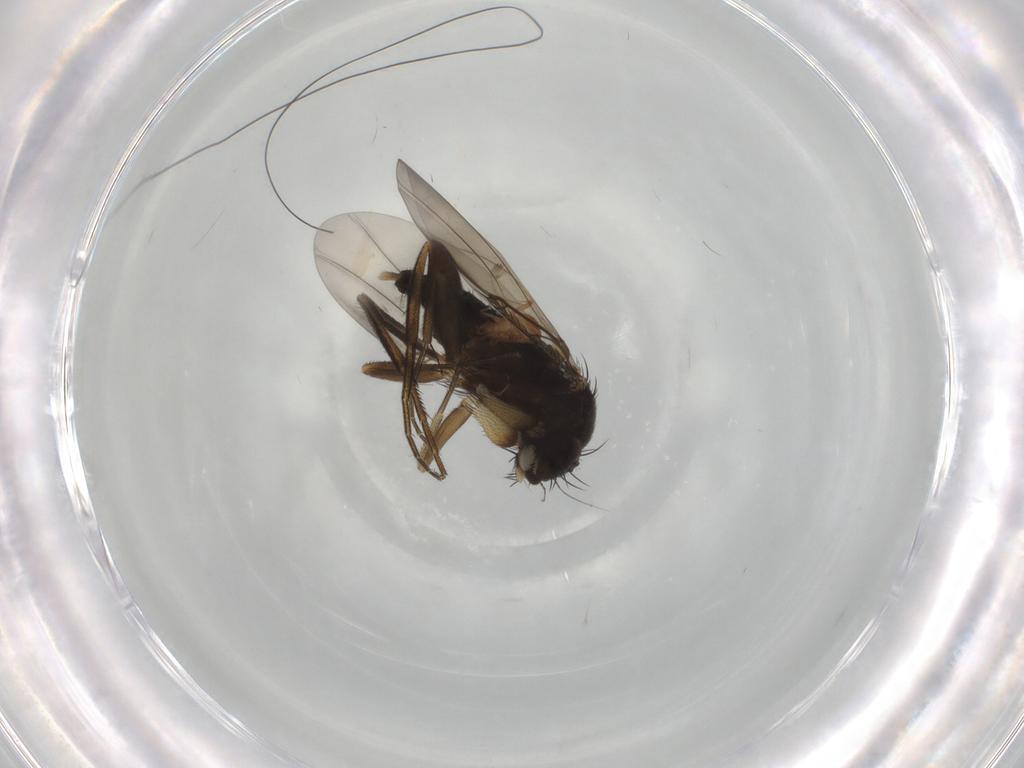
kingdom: Animalia
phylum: Arthropoda
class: Insecta
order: Diptera
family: Phoridae
